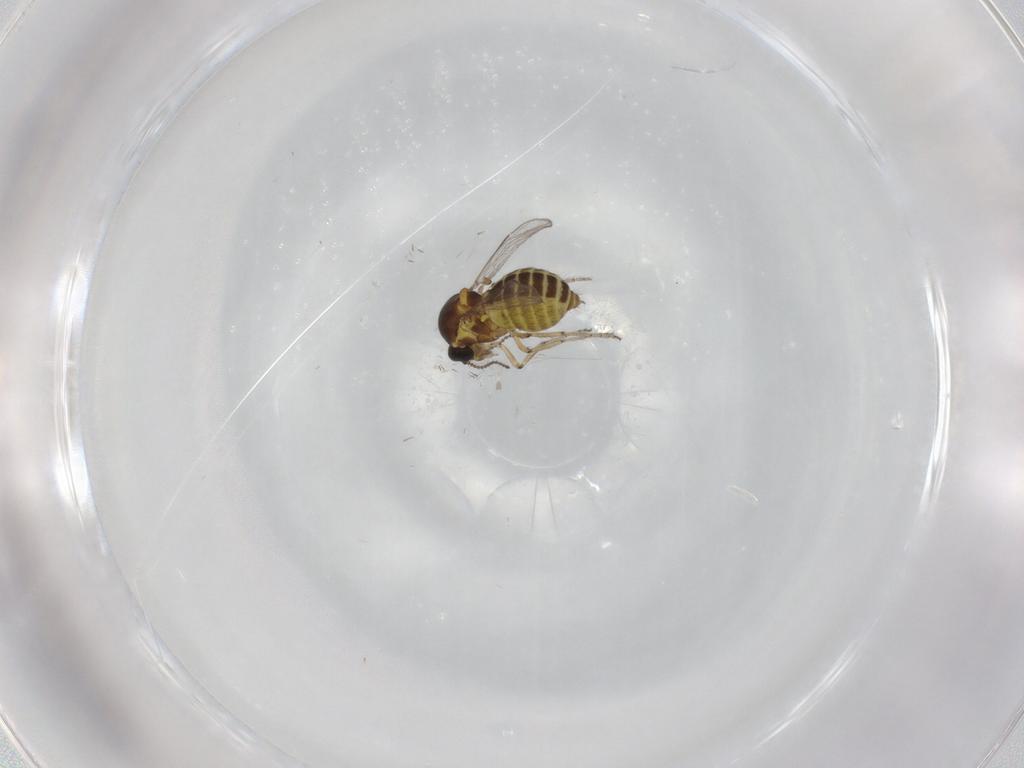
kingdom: Animalia
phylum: Arthropoda
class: Insecta
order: Diptera
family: Ceratopogonidae
